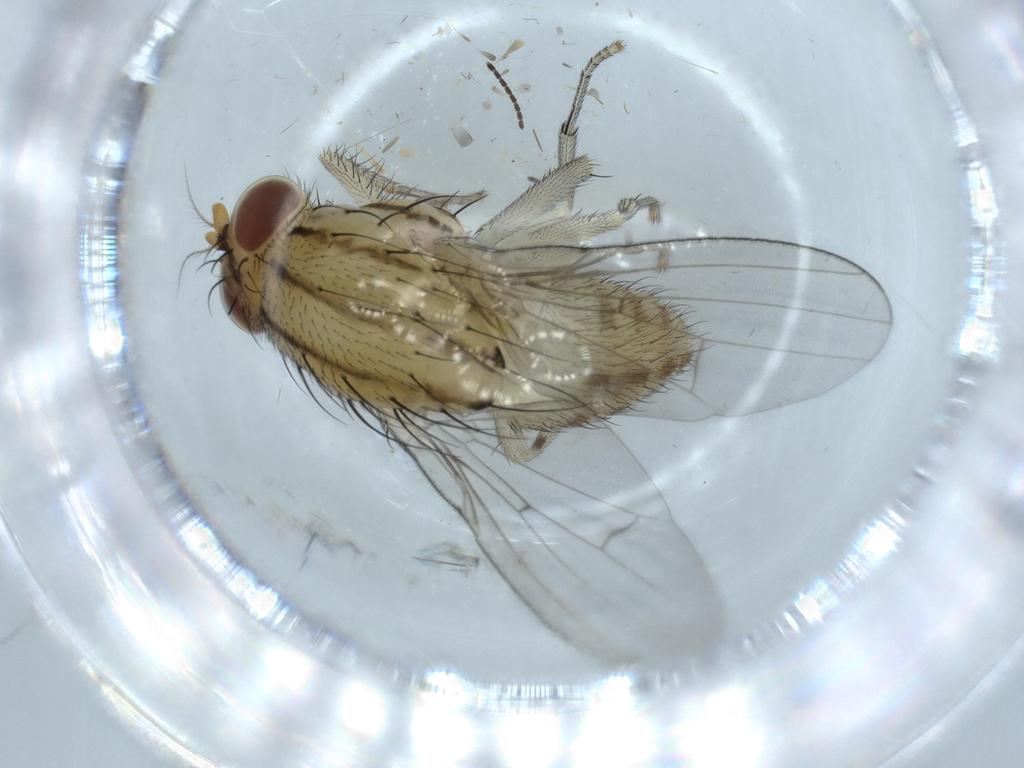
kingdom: Animalia
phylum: Arthropoda
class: Insecta
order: Diptera
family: Lauxaniidae
